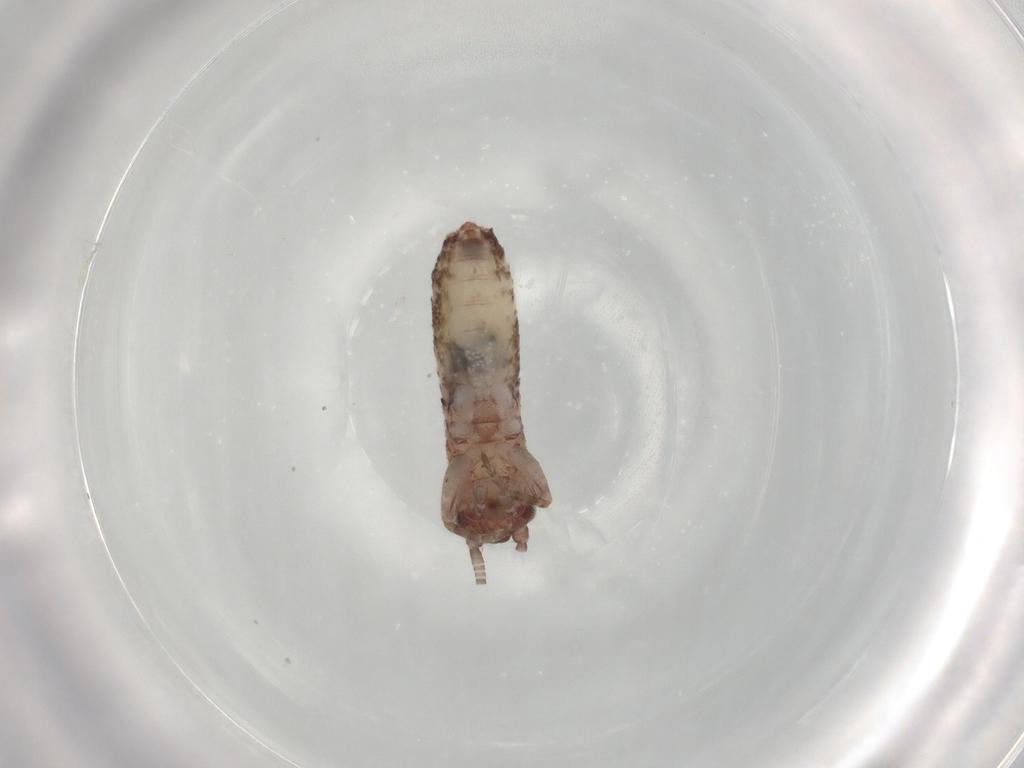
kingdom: Animalia
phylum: Arthropoda
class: Insecta
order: Orthoptera
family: Mogoplistidae
